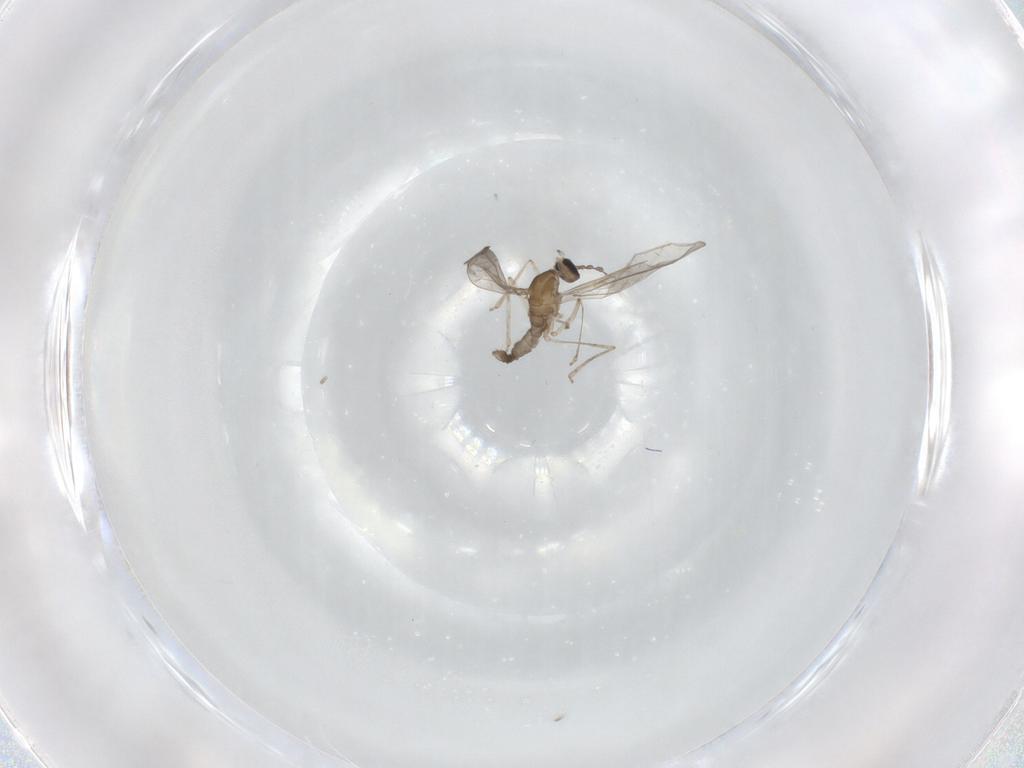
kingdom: Animalia
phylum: Arthropoda
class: Insecta
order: Diptera
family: Cecidomyiidae
